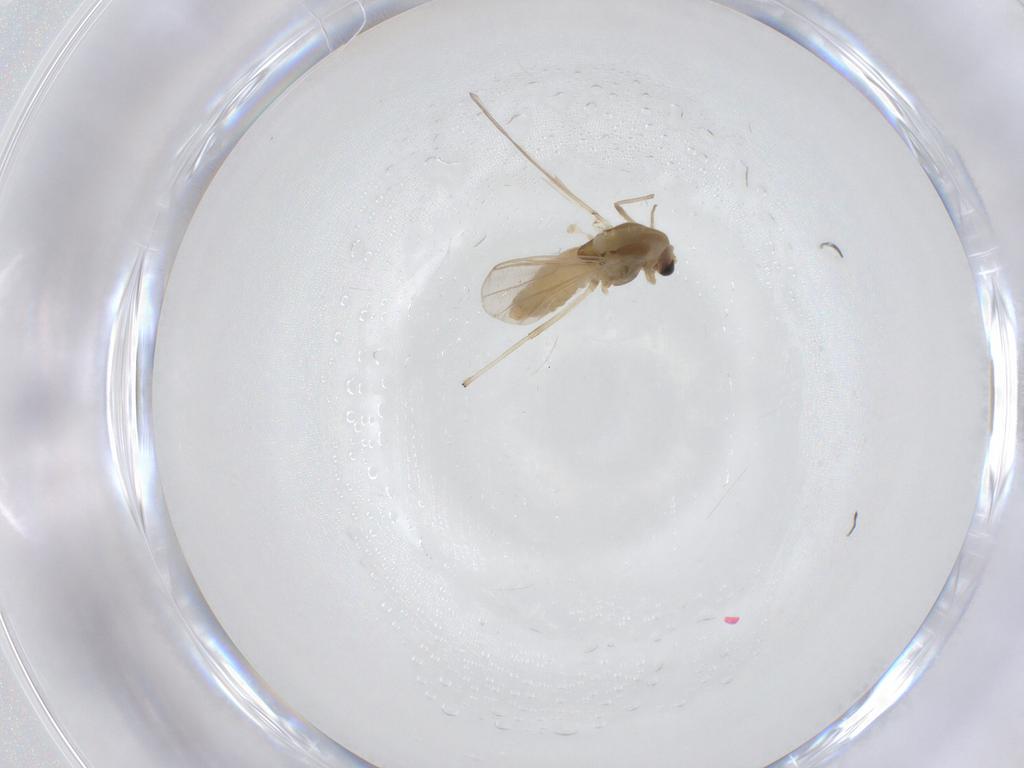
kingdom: Animalia
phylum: Arthropoda
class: Insecta
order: Diptera
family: Chironomidae
